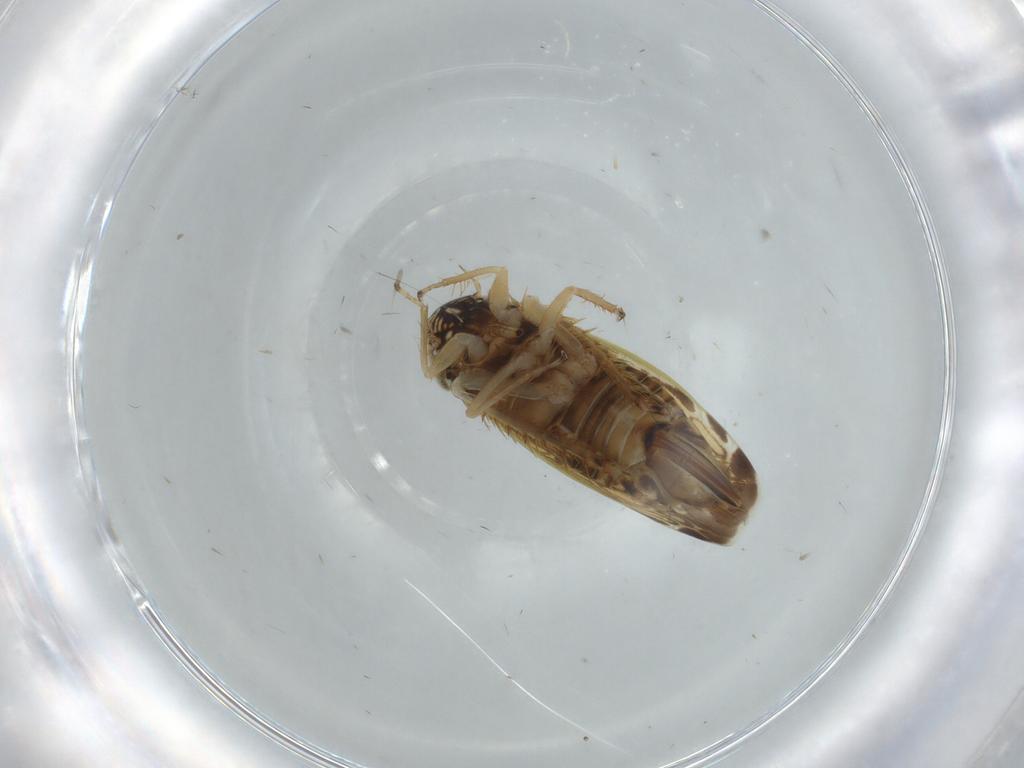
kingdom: Animalia
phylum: Arthropoda
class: Insecta
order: Hemiptera
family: Cicadellidae
